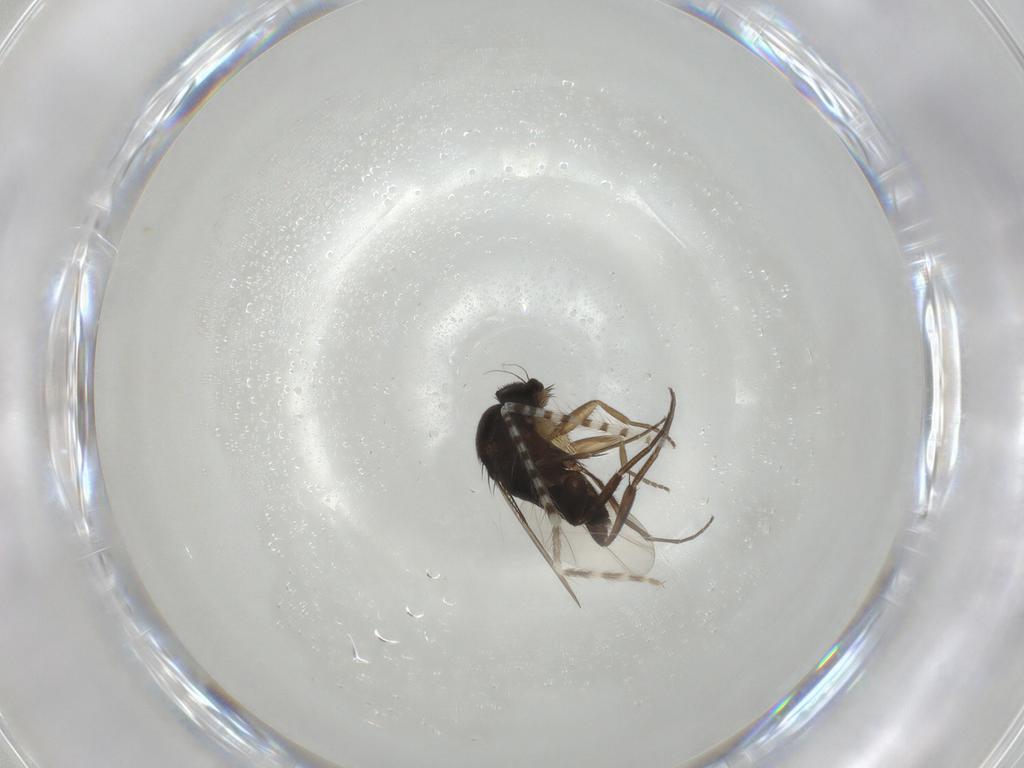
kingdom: Animalia
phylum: Arthropoda
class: Insecta
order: Diptera
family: Phoridae
